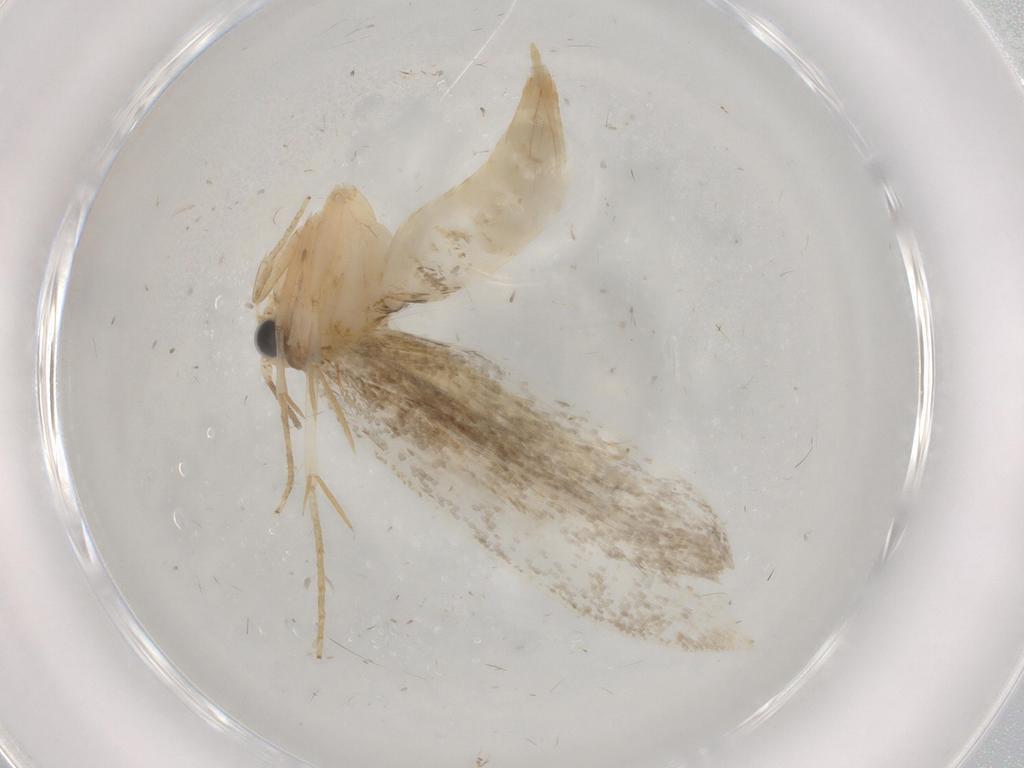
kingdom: Animalia
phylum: Arthropoda
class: Insecta
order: Lepidoptera
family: Tineidae
